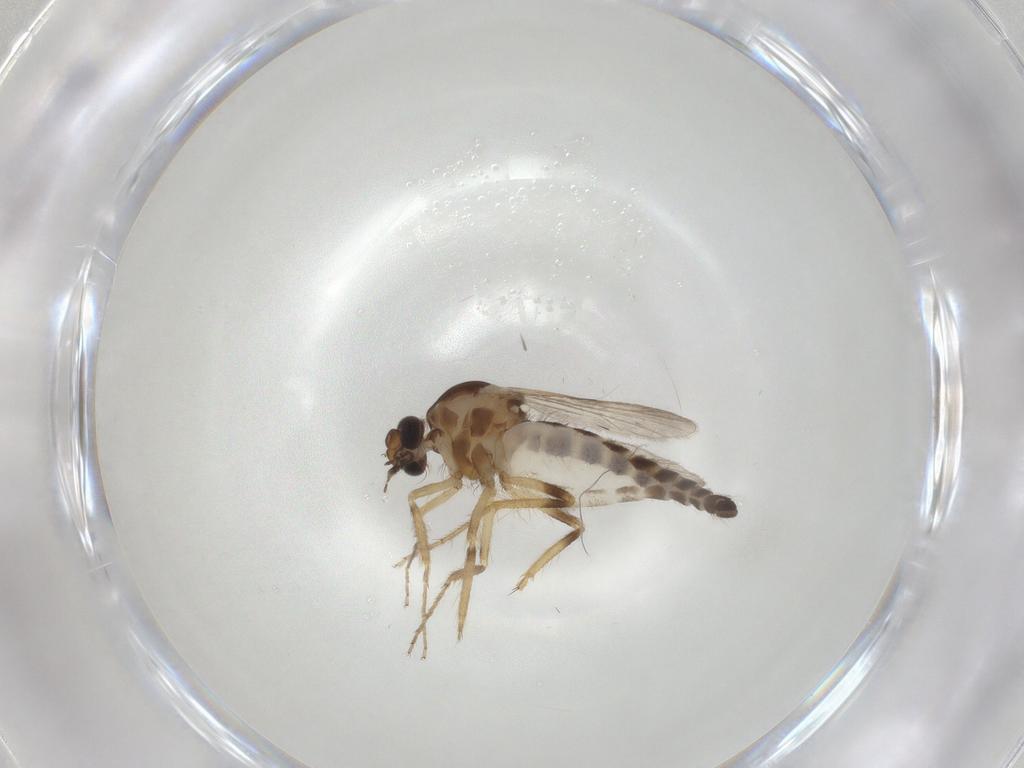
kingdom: Animalia
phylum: Arthropoda
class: Insecta
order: Diptera
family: Ceratopogonidae
